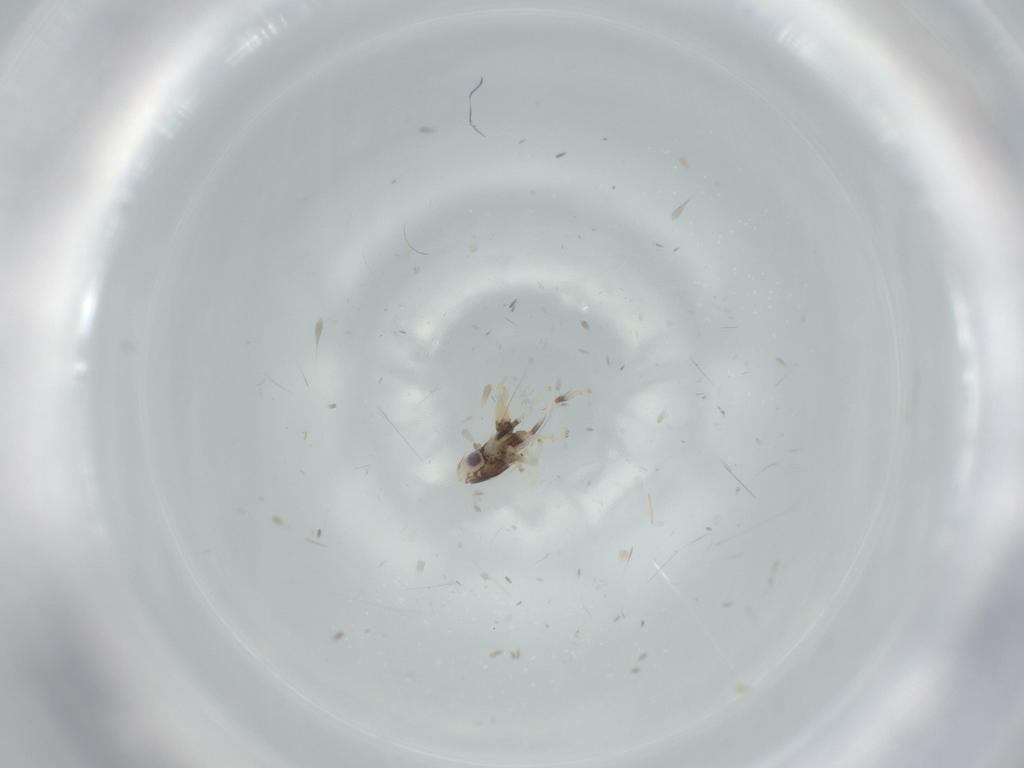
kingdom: Animalia
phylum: Arthropoda
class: Insecta
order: Hemiptera
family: Cicadellidae
